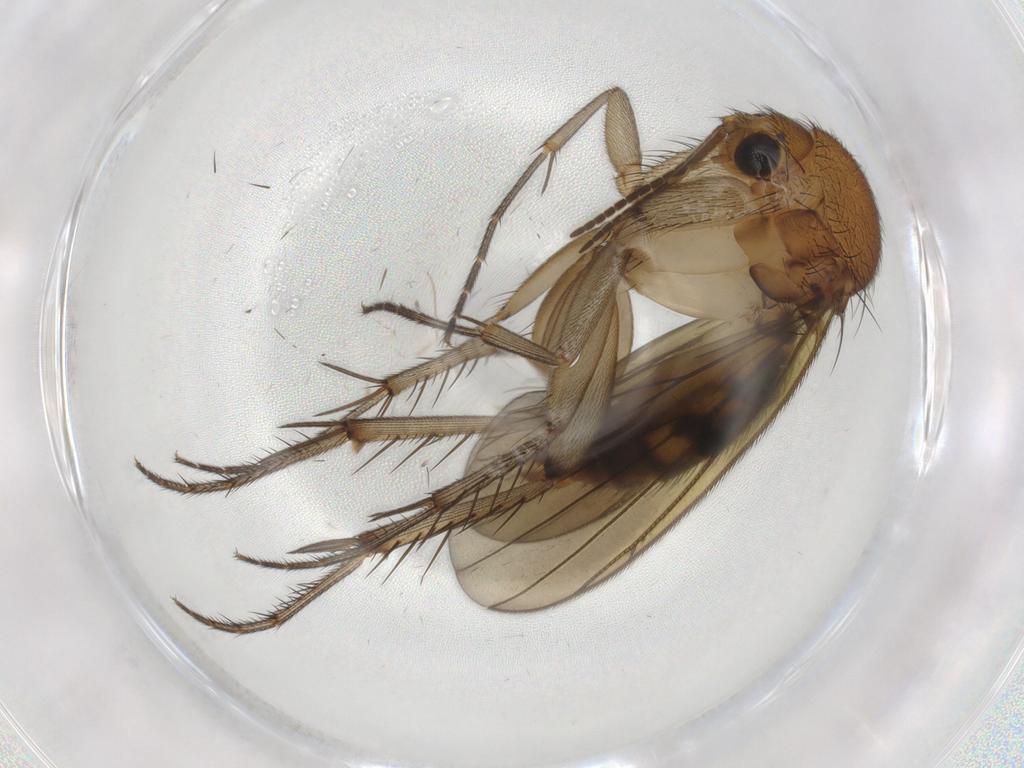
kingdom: Animalia
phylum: Arthropoda
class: Insecta
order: Diptera
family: Mycetophilidae
